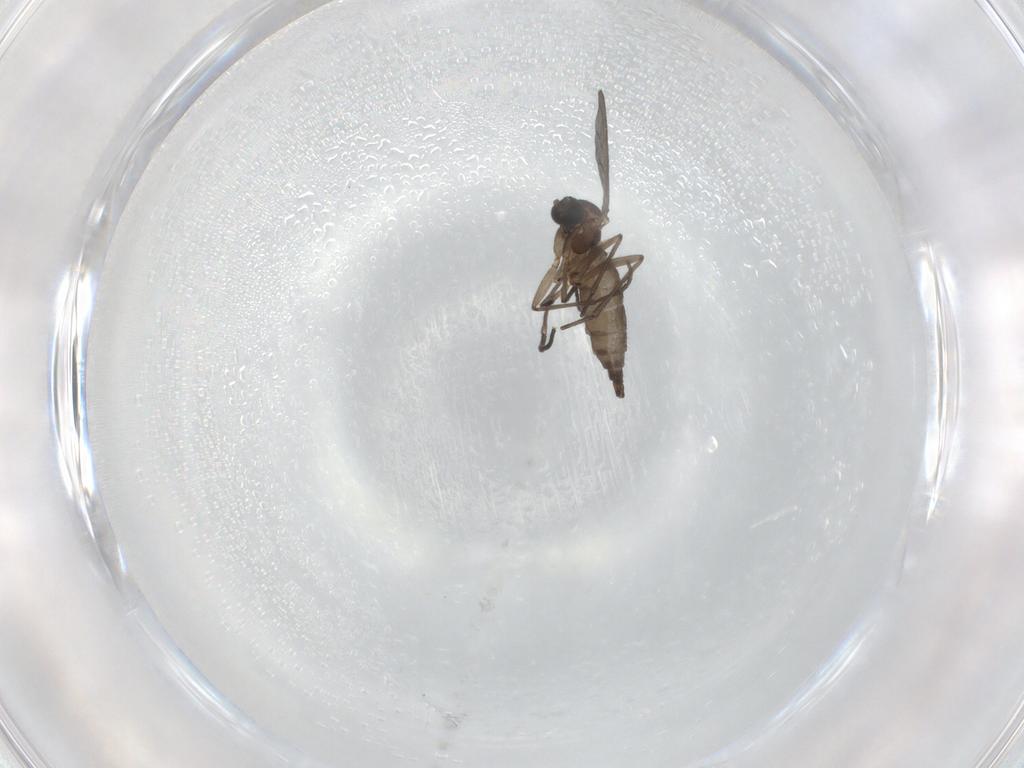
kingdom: Animalia
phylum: Arthropoda
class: Insecta
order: Diptera
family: Sciaridae
